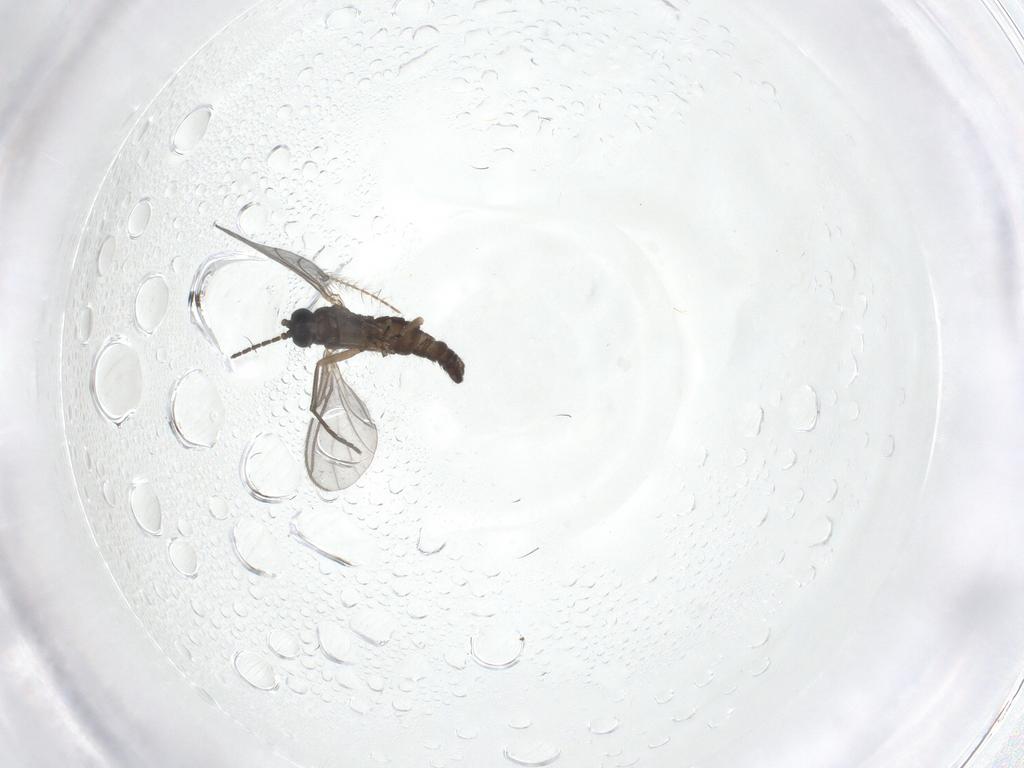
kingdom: Animalia
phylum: Arthropoda
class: Insecta
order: Diptera
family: Sciaridae
